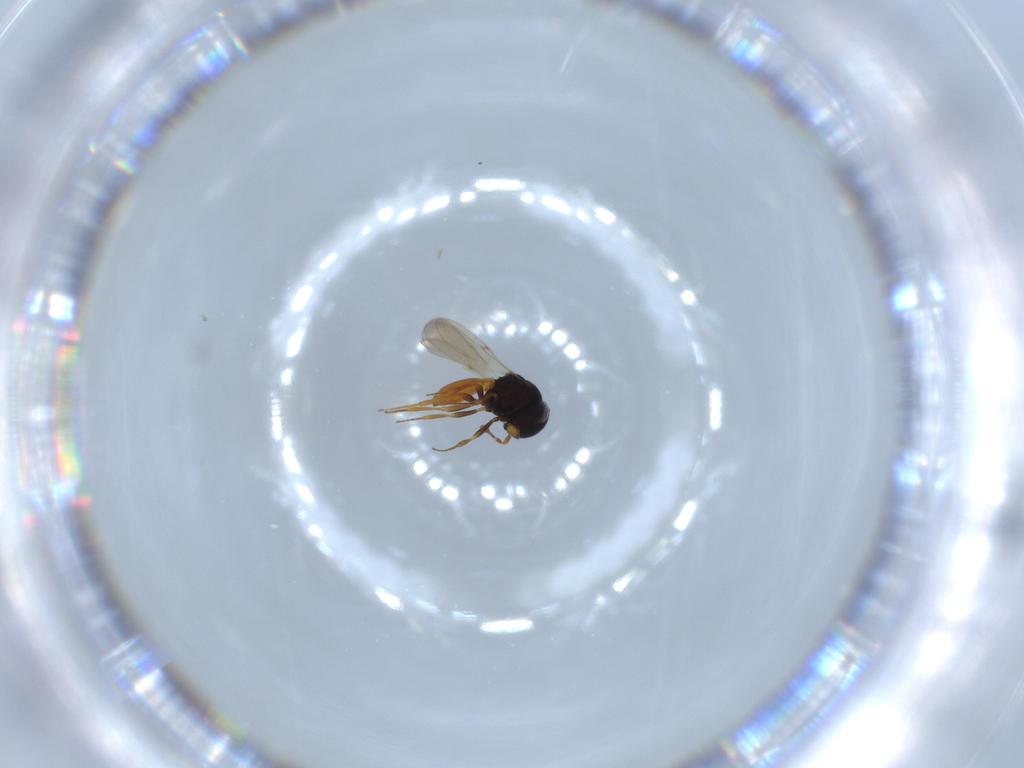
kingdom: Animalia
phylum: Arthropoda
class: Insecta
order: Hymenoptera
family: Scelionidae
